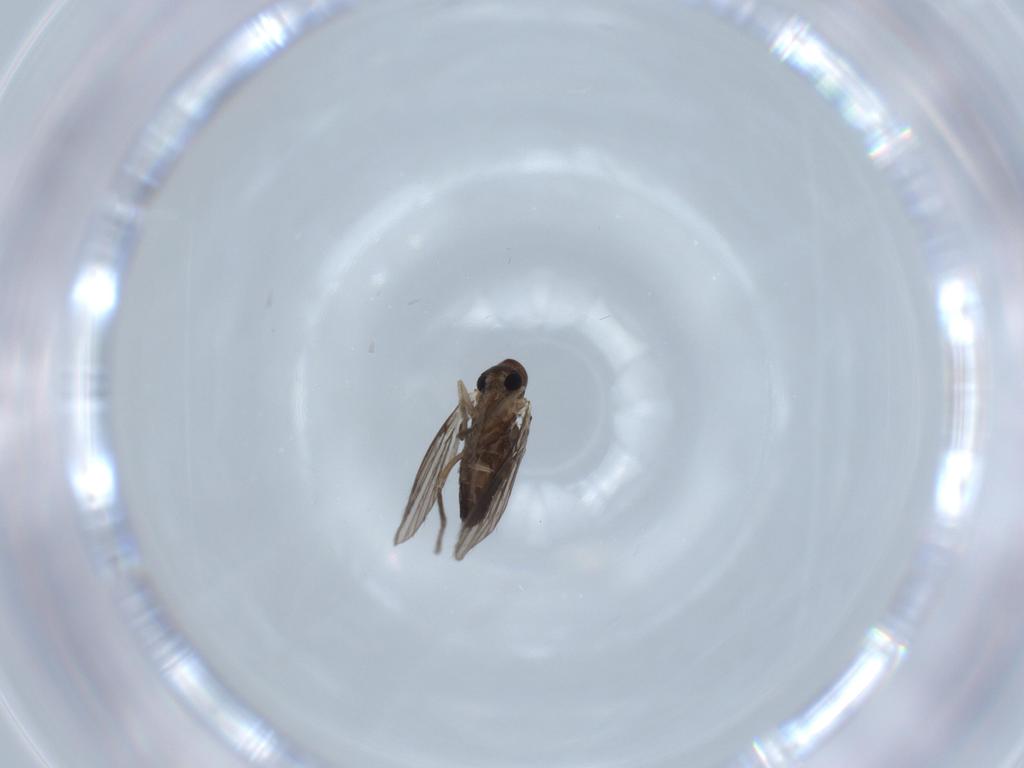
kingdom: Animalia
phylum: Arthropoda
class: Insecta
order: Diptera
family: Psychodidae
